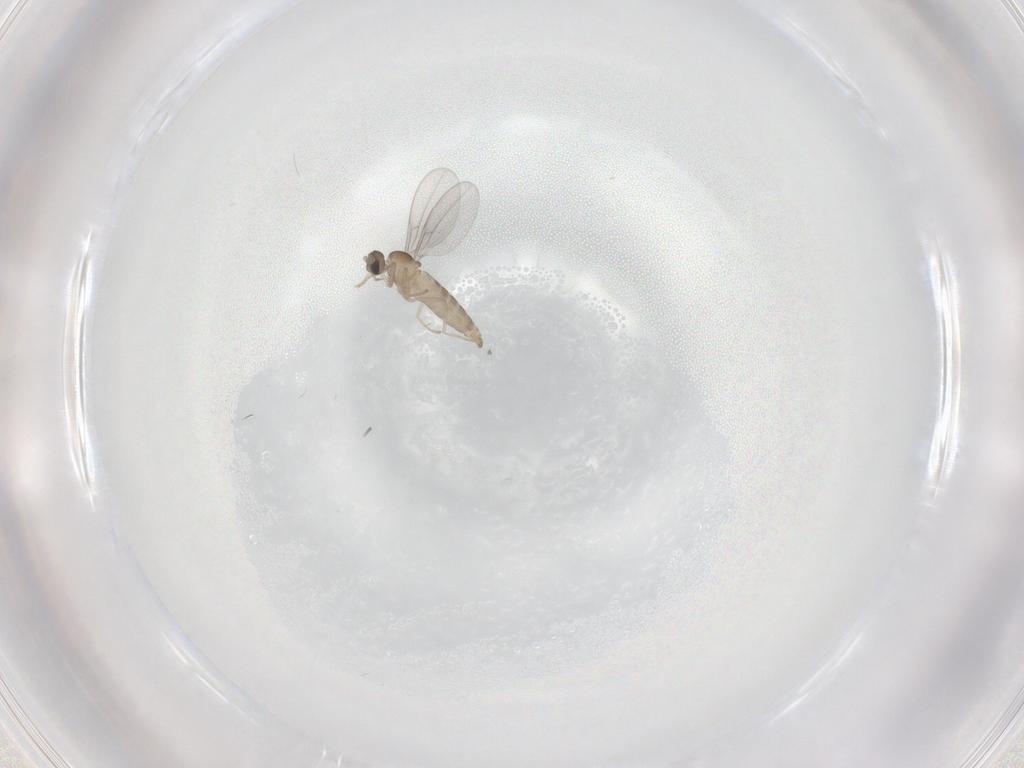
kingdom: Animalia
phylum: Arthropoda
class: Insecta
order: Diptera
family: Cecidomyiidae
